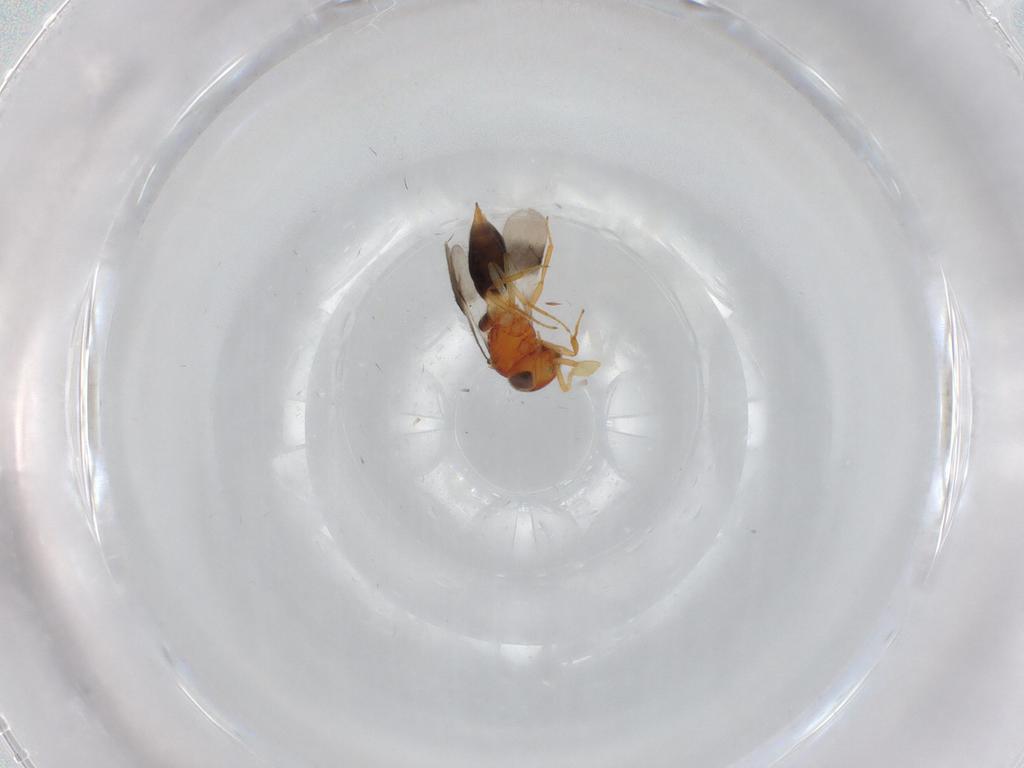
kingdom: Animalia
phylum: Arthropoda
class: Insecta
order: Hymenoptera
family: Scelionidae
